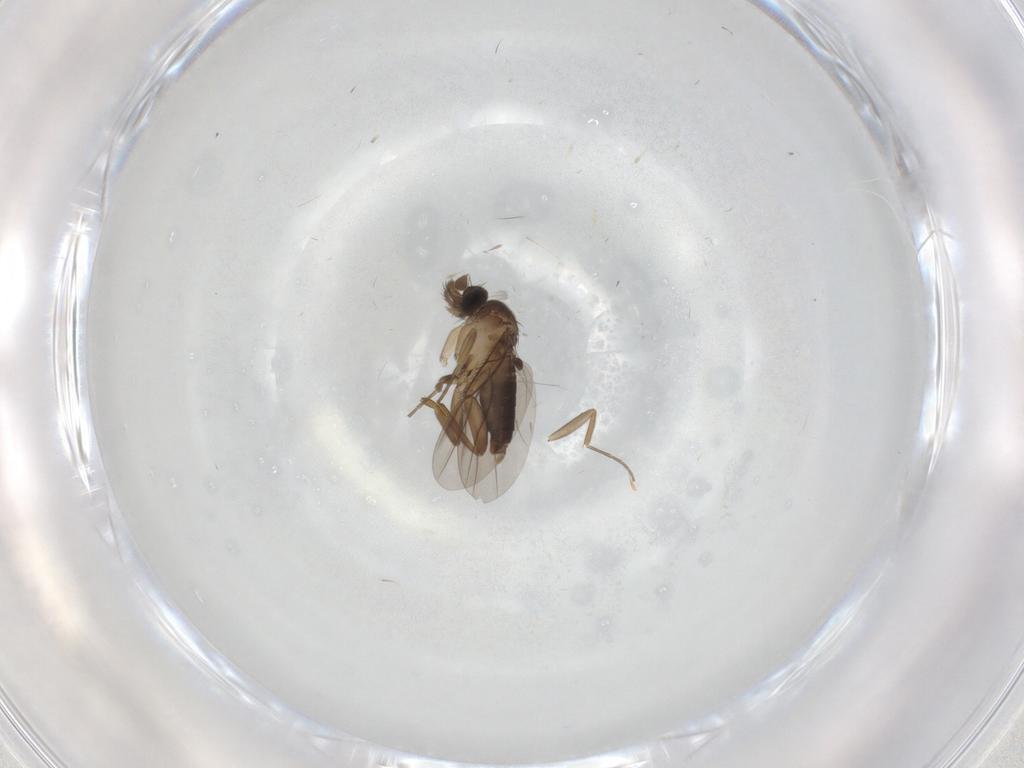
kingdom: Animalia
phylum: Arthropoda
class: Insecta
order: Diptera
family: Phoridae
